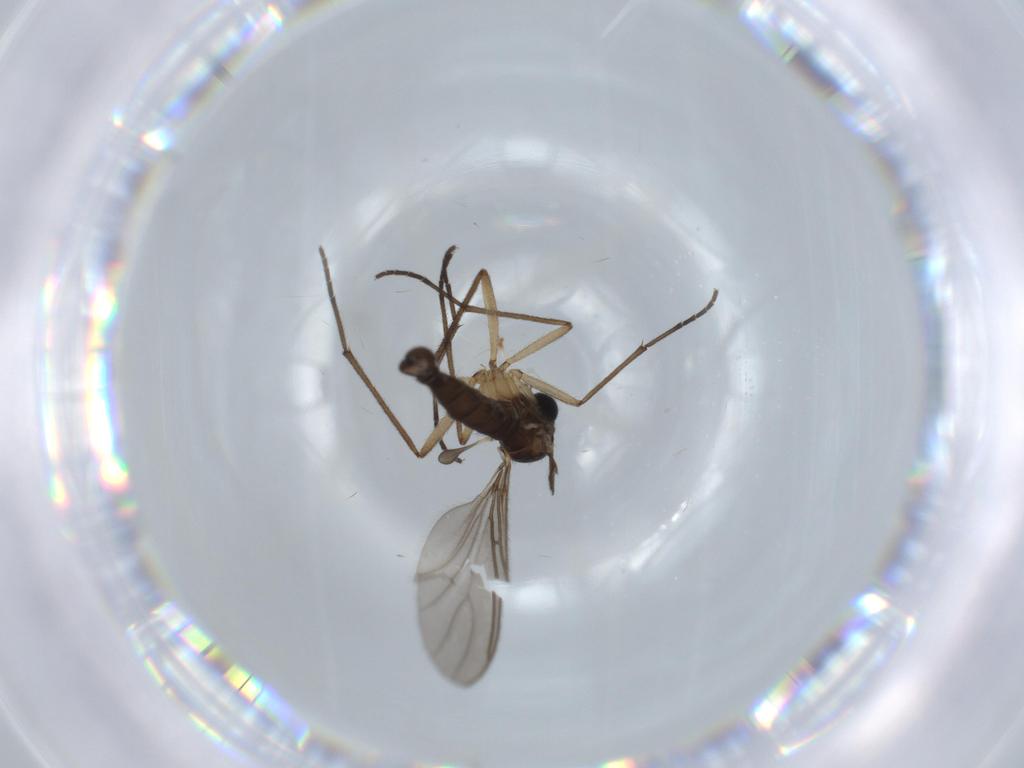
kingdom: Animalia
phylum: Arthropoda
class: Insecta
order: Diptera
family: Sciaridae
